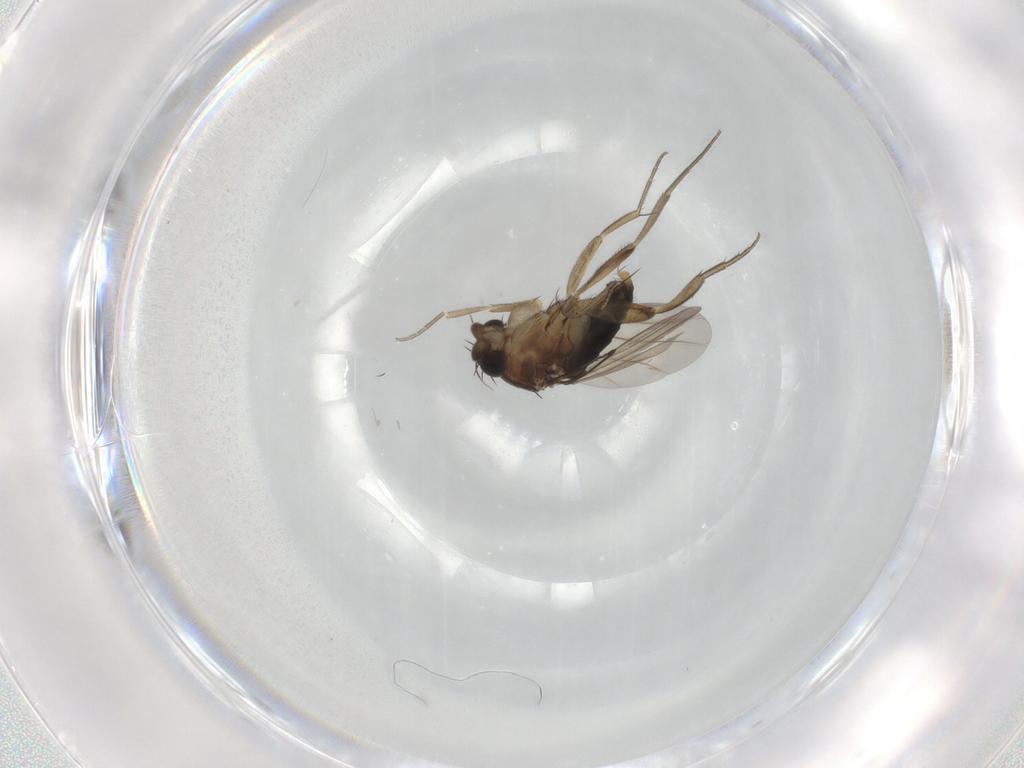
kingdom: Animalia
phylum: Arthropoda
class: Insecta
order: Diptera
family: Phoridae
